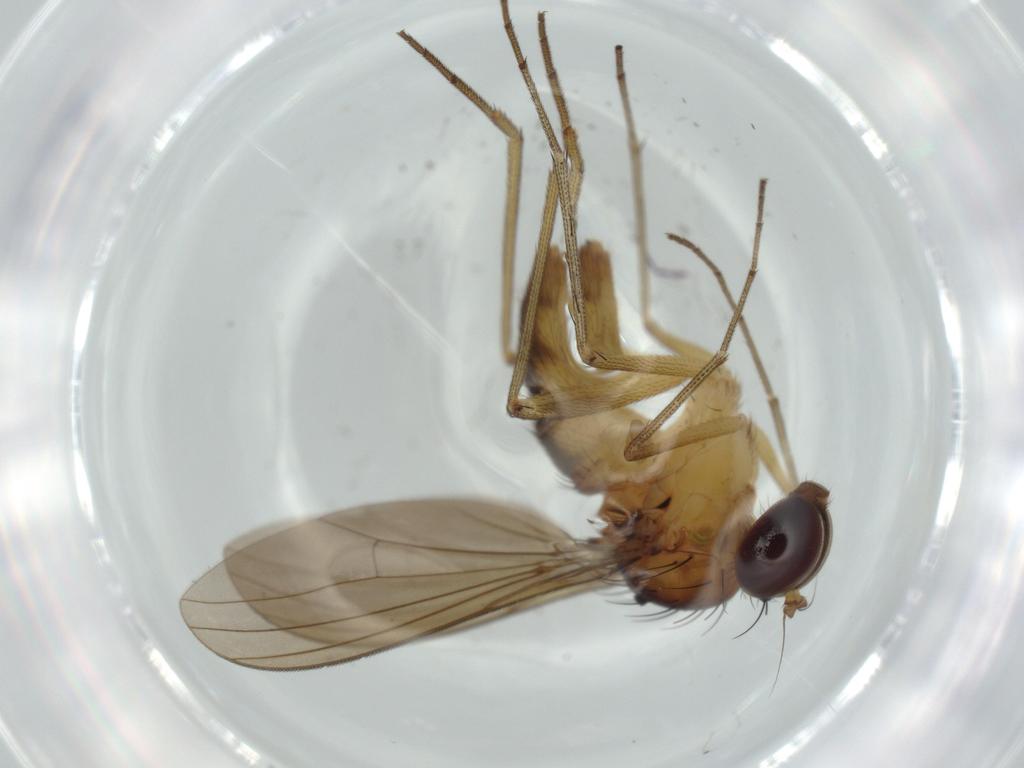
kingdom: Animalia
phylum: Arthropoda
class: Insecta
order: Diptera
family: Dolichopodidae
